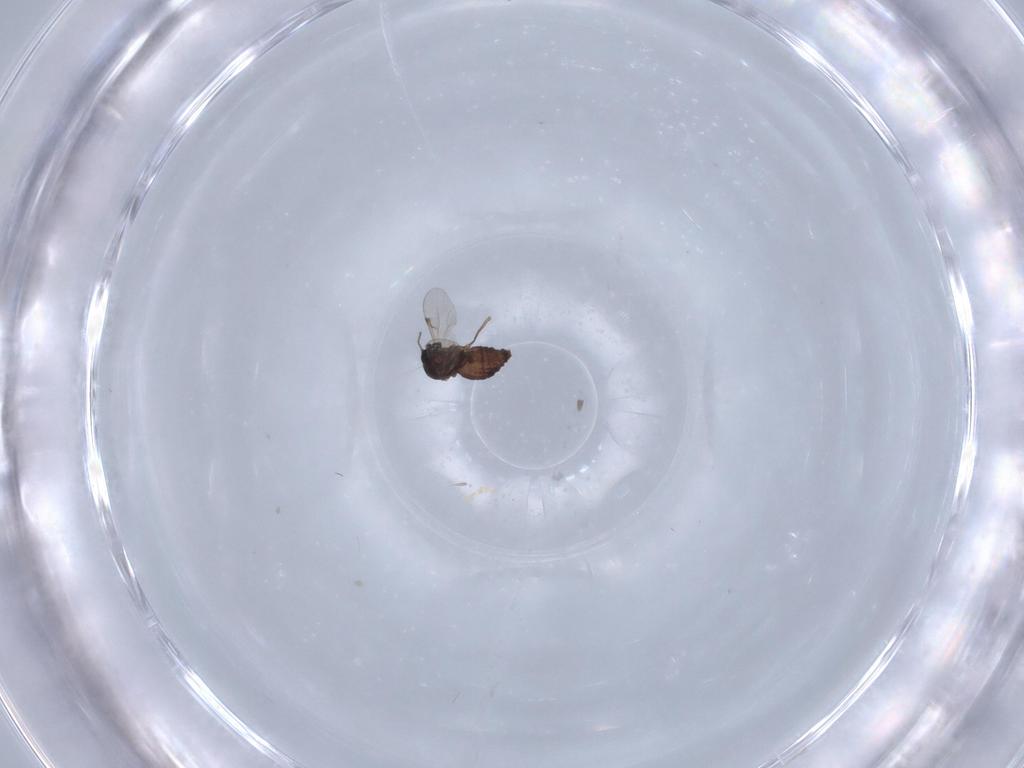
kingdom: Animalia
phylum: Arthropoda
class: Insecta
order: Diptera
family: Ceratopogonidae
